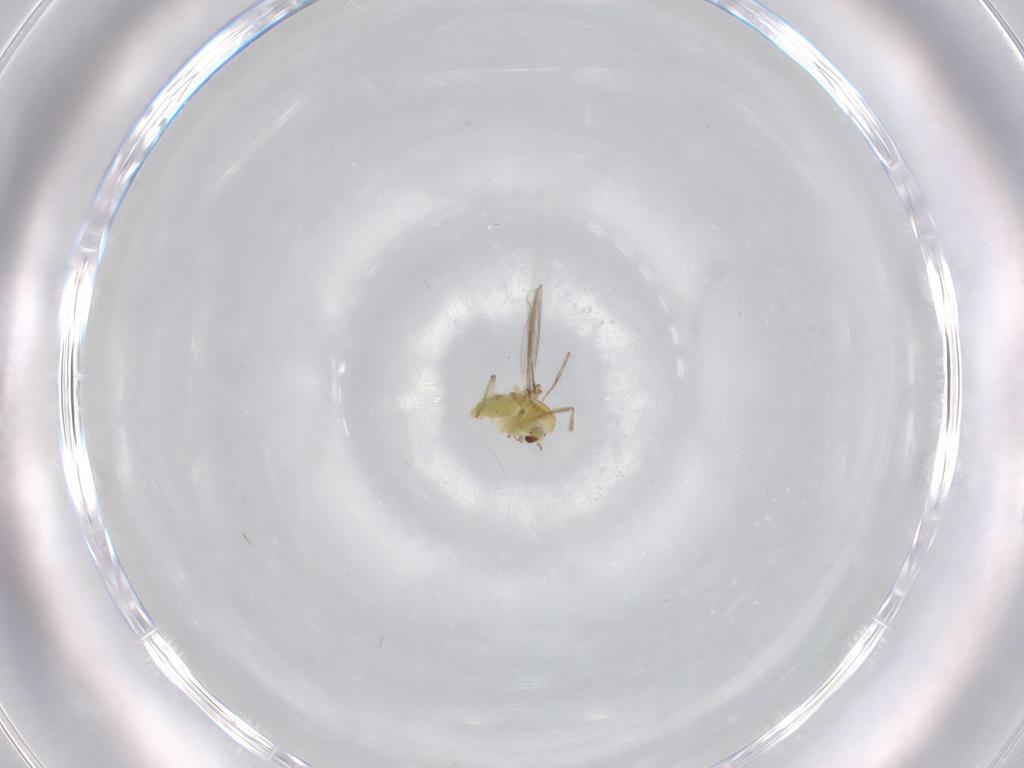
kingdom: Animalia
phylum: Arthropoda
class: Insecta
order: Diptera
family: Chironomidae
